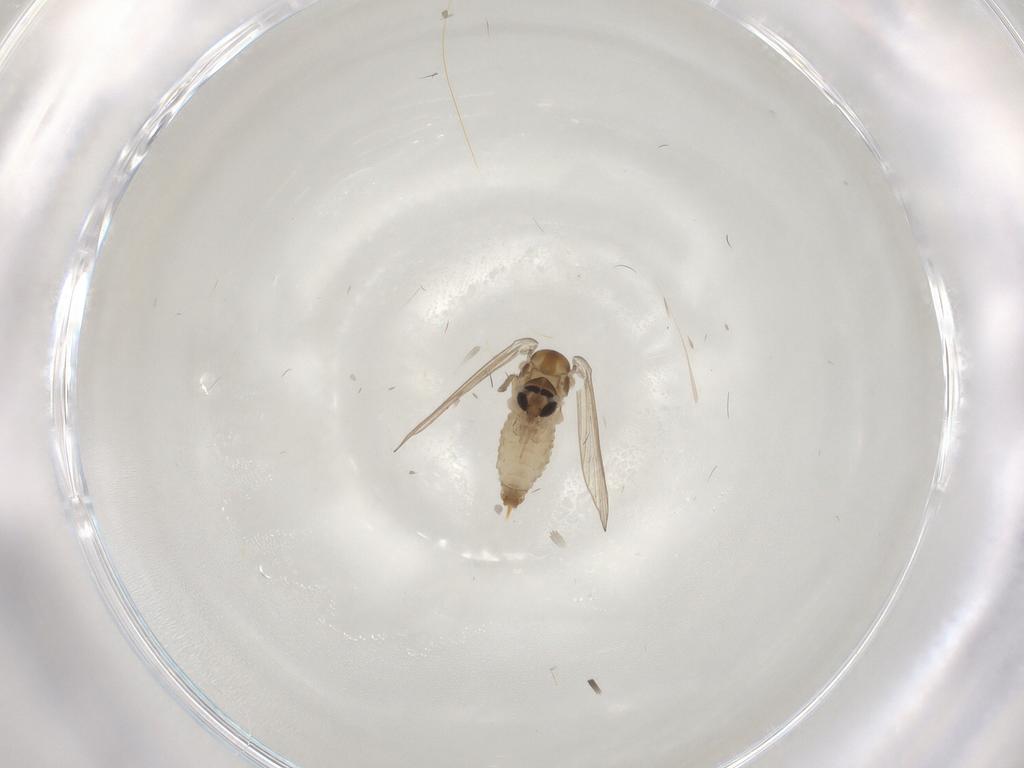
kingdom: Animalia
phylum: Arthropoda
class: Insecta
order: Diptera
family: Psychodidae
